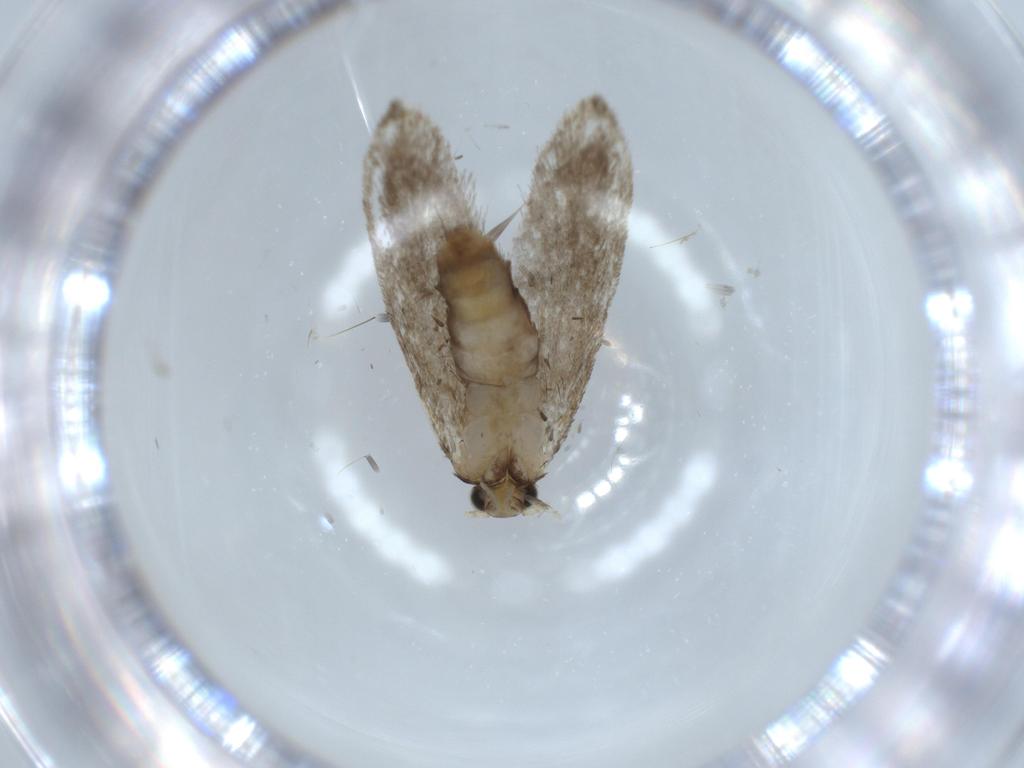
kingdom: Animalia
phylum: Arthropoda
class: Insecta
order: Lepidoptera
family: Tineidae
